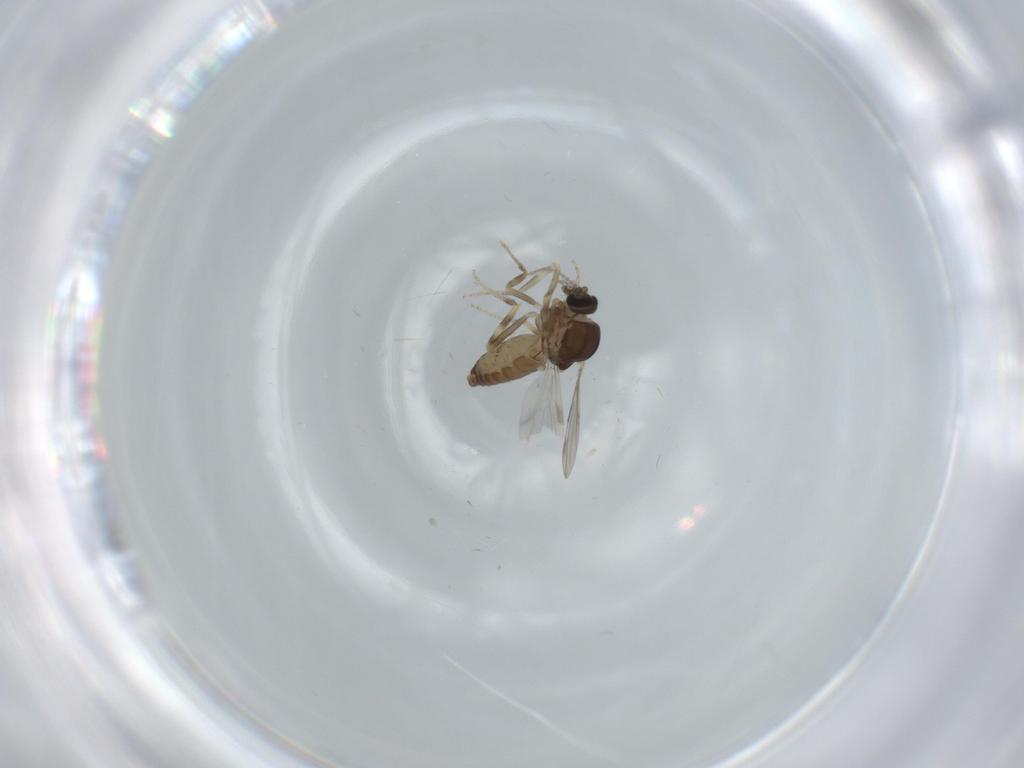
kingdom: Animalia
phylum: Arthropoda
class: Insecta
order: Diptera
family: Ceratopogonidae
